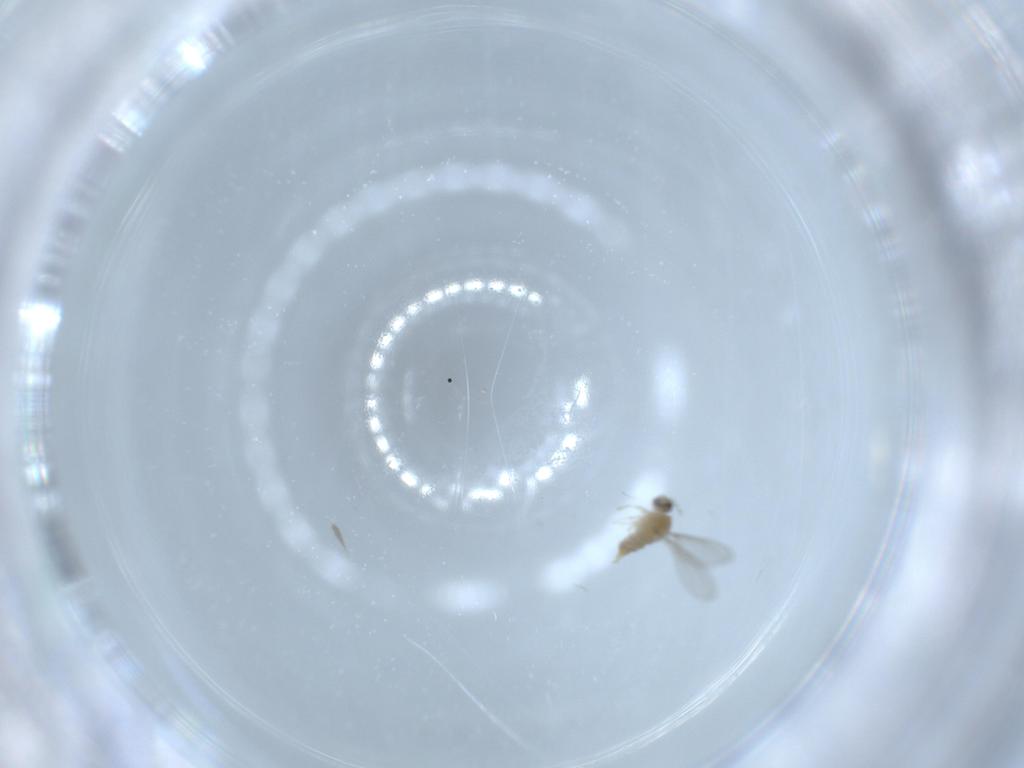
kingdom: Animalia
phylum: Arthropoda
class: Insecta
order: Diptera
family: Cecidomyiidae
